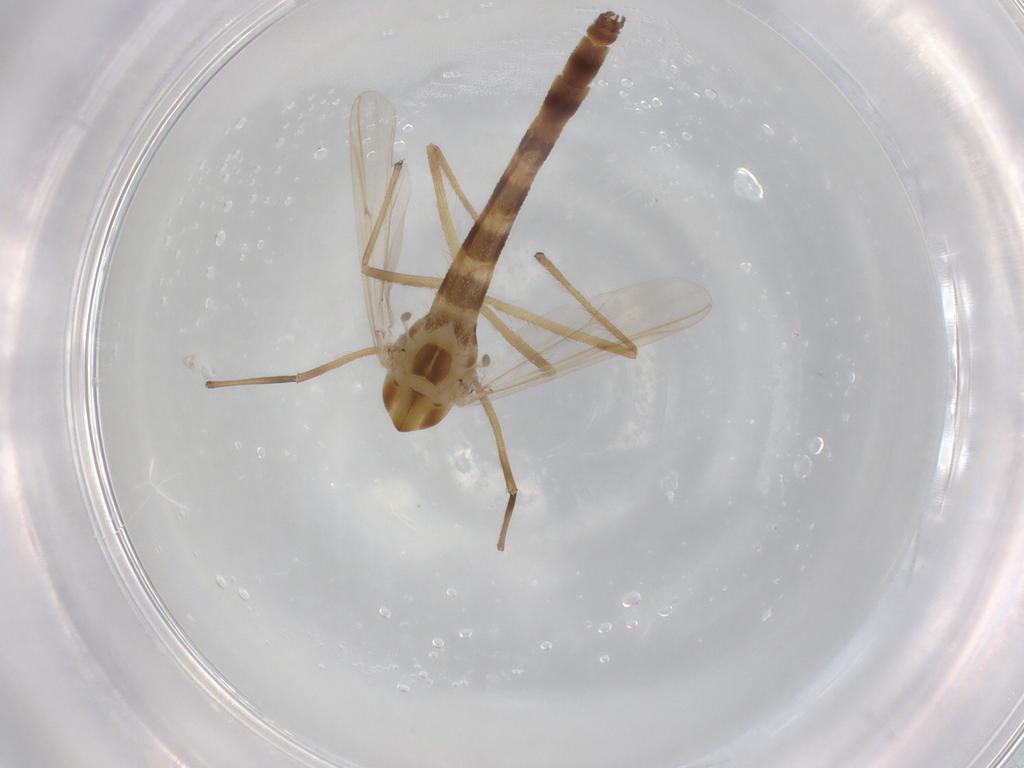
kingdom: Animalia
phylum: Arthropoda
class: Insecta
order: Diptera
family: Chironomidae
